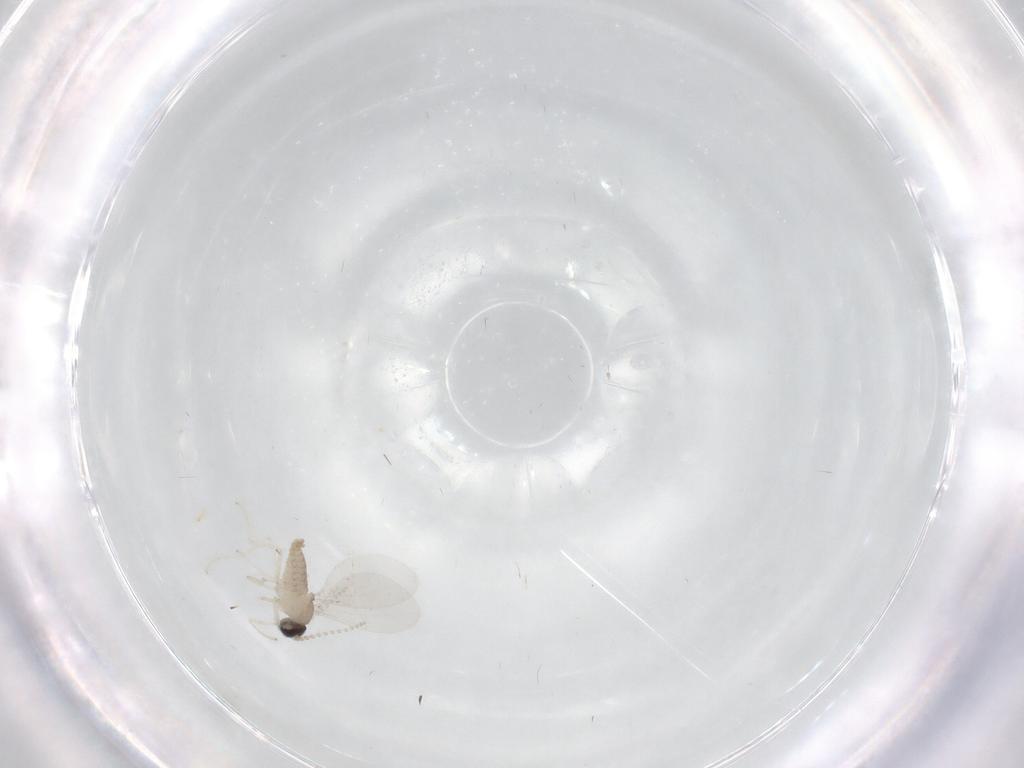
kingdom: Animalia
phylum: Arthropoda
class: Insecta
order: Diptera
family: Cecidomyiidae
